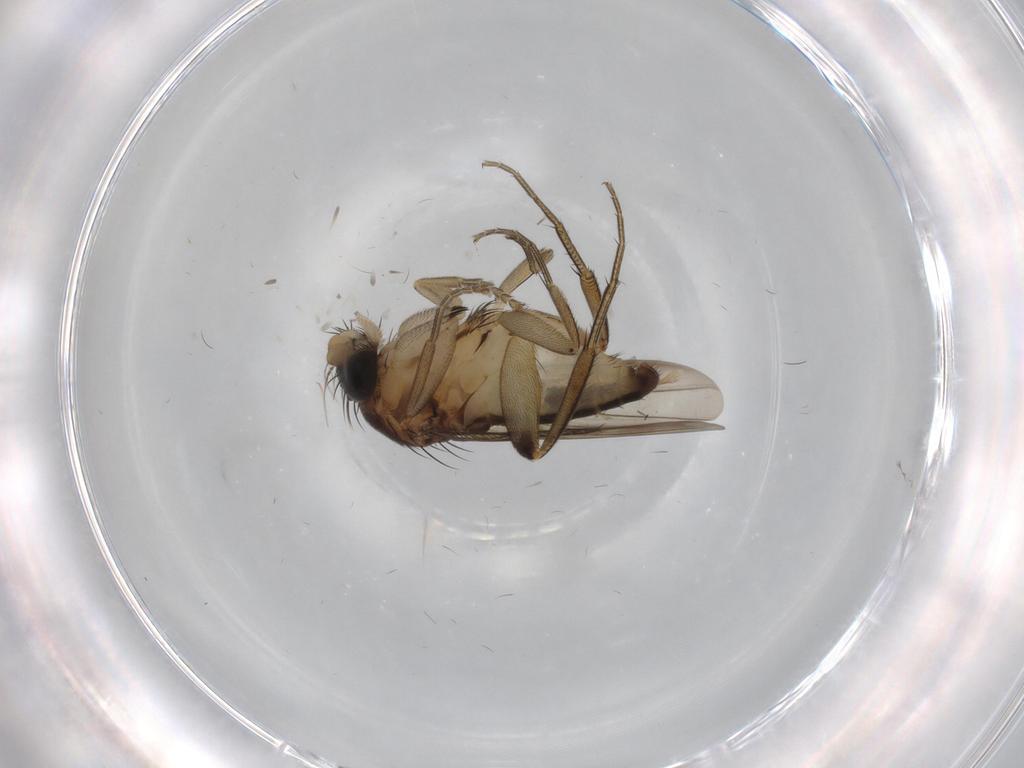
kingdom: Animalia
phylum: Arthropoda
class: Insecta
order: Diptera
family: Phoridae
